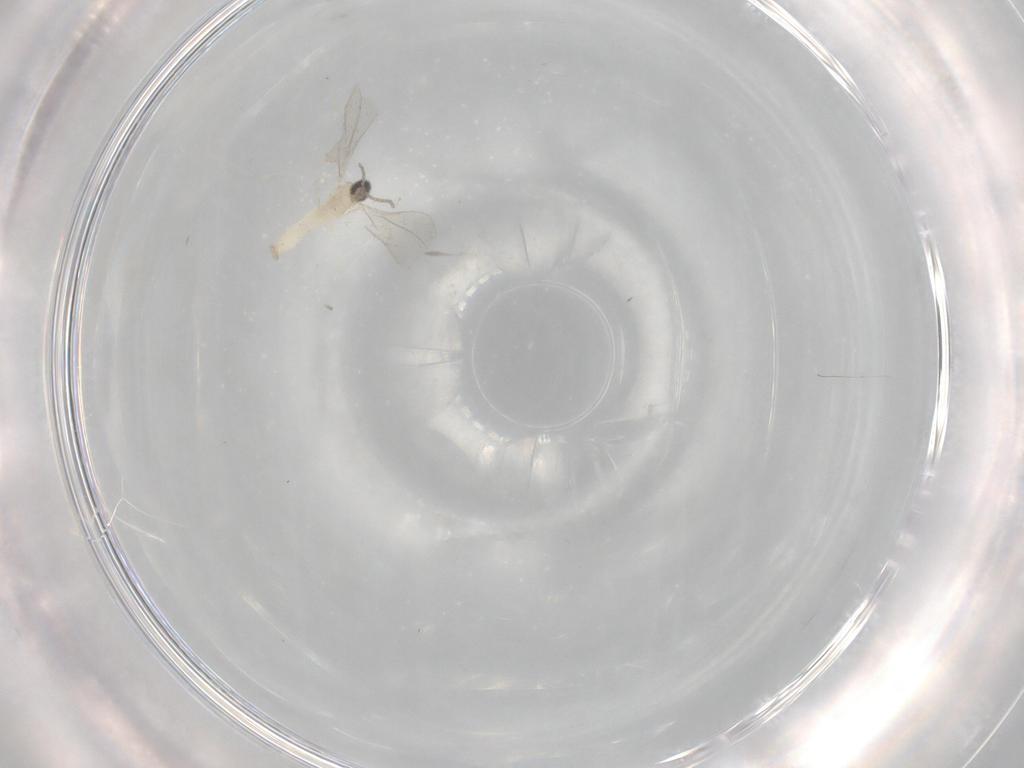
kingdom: Animalia
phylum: Arthropoda
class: Insecta
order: Diptera
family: Ceratopogonidae
